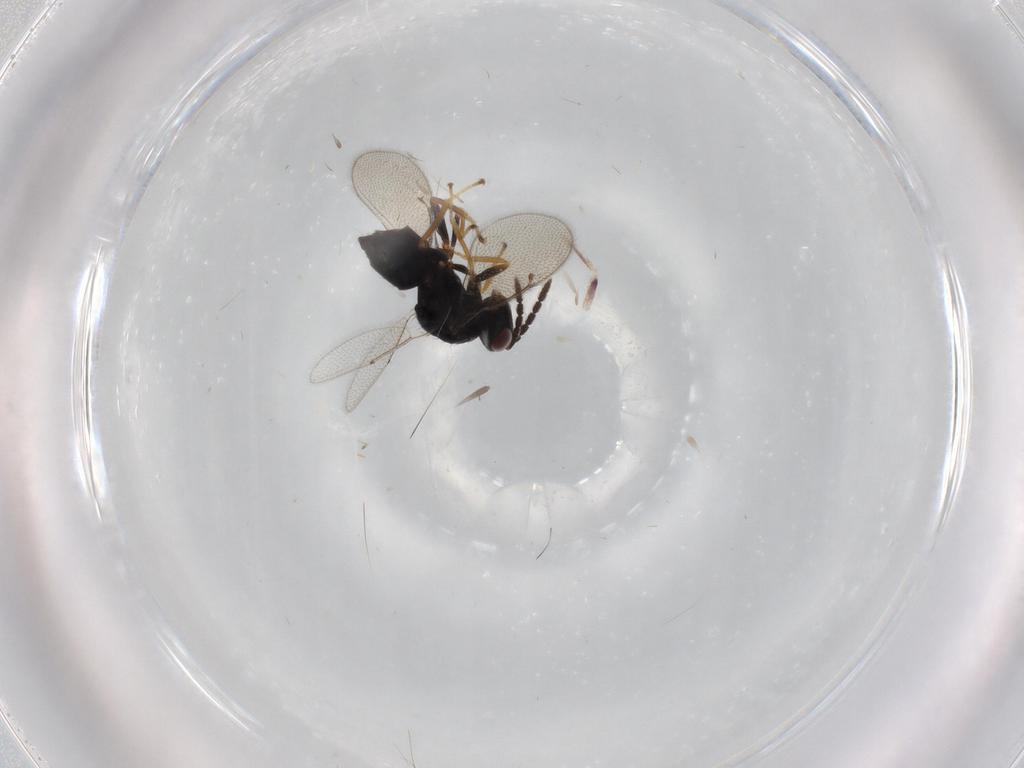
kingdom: Animalia
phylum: Arthropoda
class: Insecta
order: Hymenoptera
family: Eulophidae
